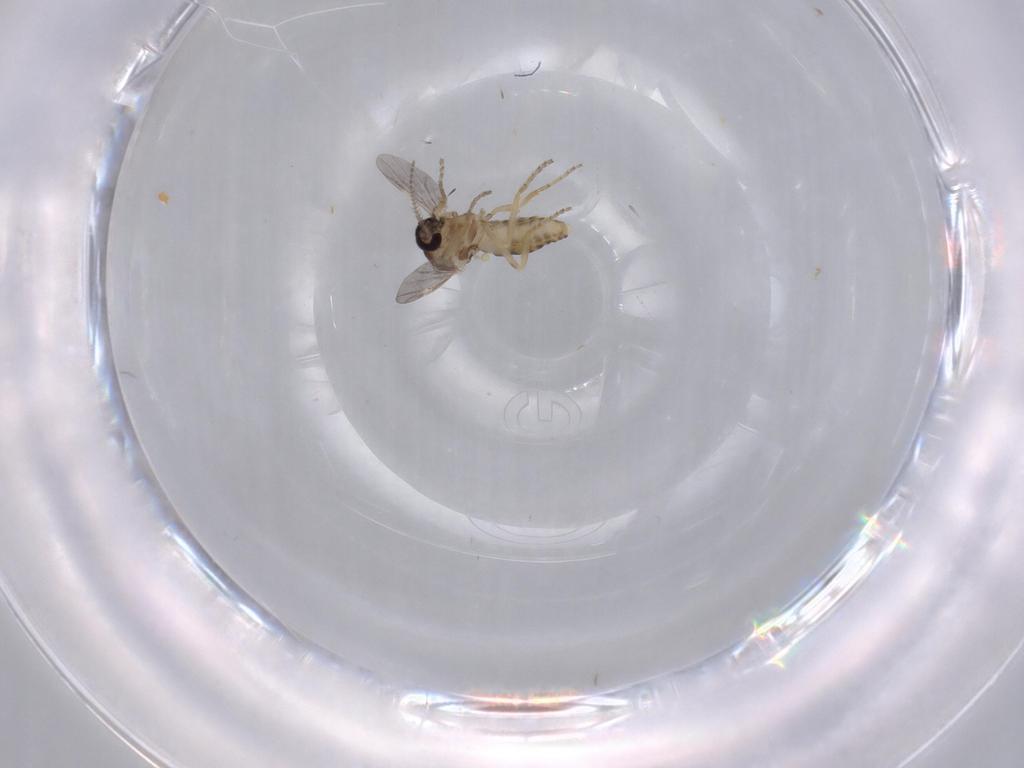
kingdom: Animalia
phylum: Arthropoda
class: Insecta
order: Diptera
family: Ceratopogonidae
